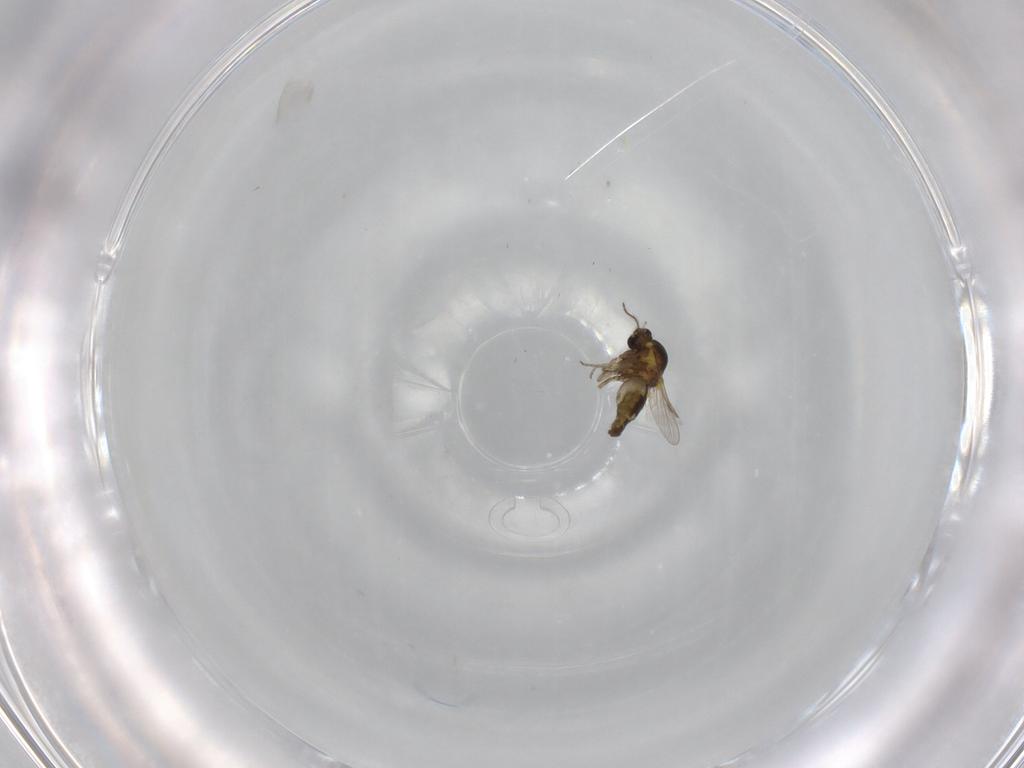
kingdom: Animalia
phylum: Arthropoda
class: Insecta
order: Diptera
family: Ceratopogonidae
